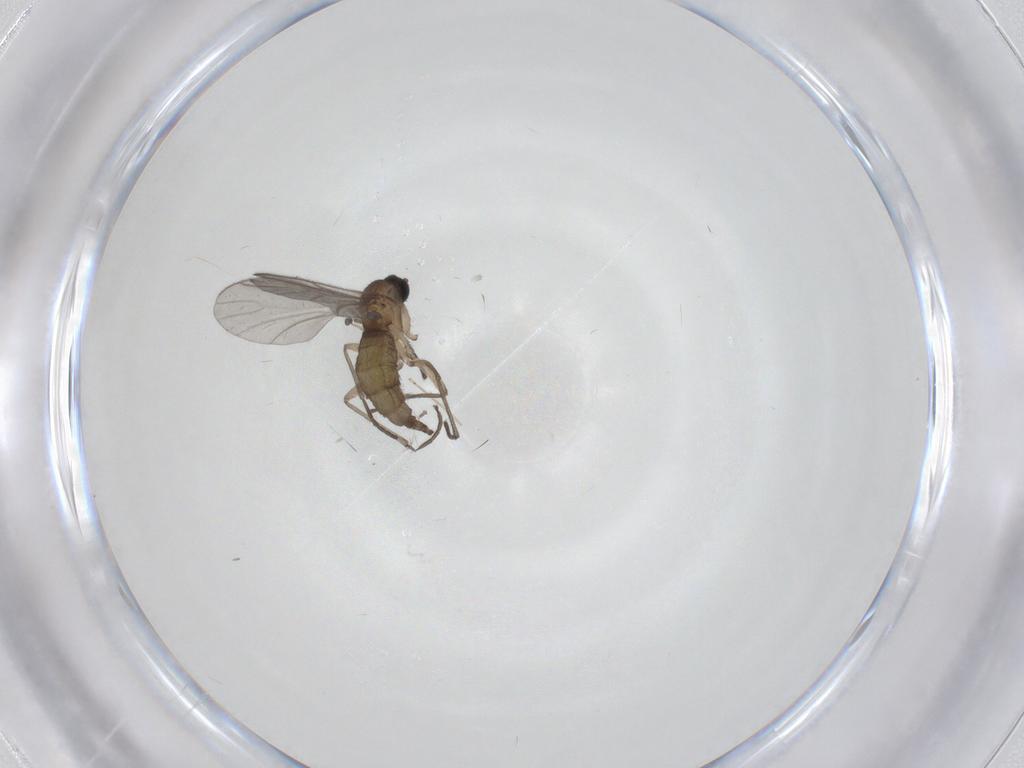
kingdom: Animalia
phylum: Arthropoda
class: Insecta
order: Diptera
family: Sciaridae
